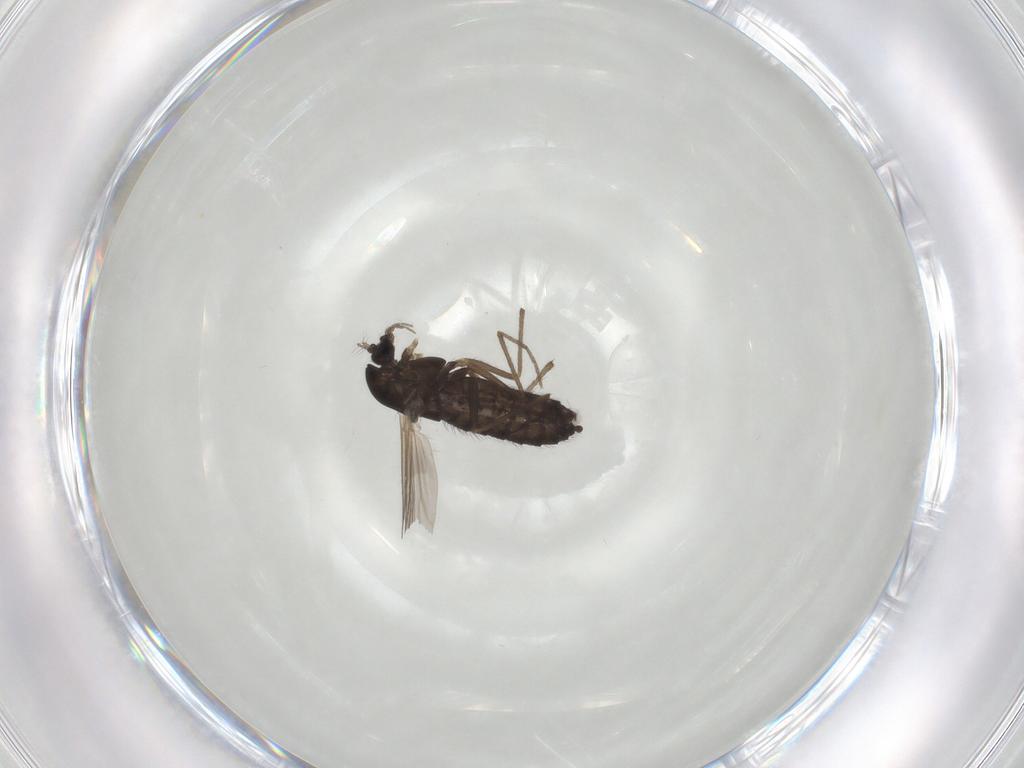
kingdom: Animalia
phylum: Arthropoda
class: Insecta
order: Diptera
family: Chironomidae
